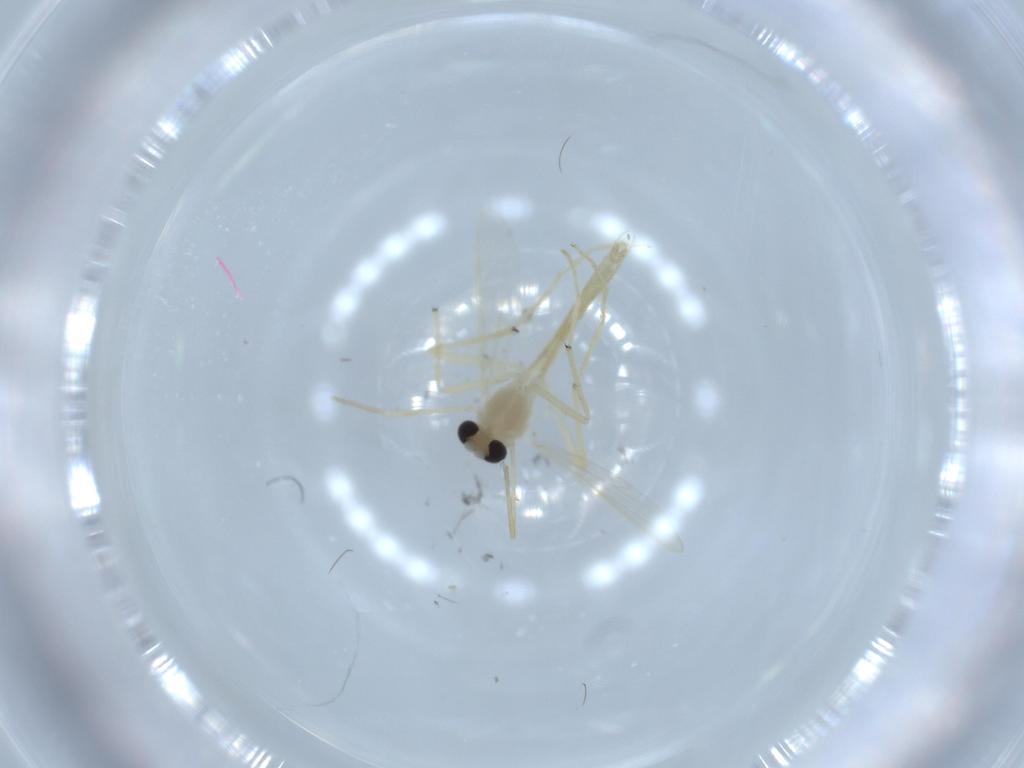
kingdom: Animalia
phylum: Arthropoda
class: Insecta
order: Diptera
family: Chironomidae
